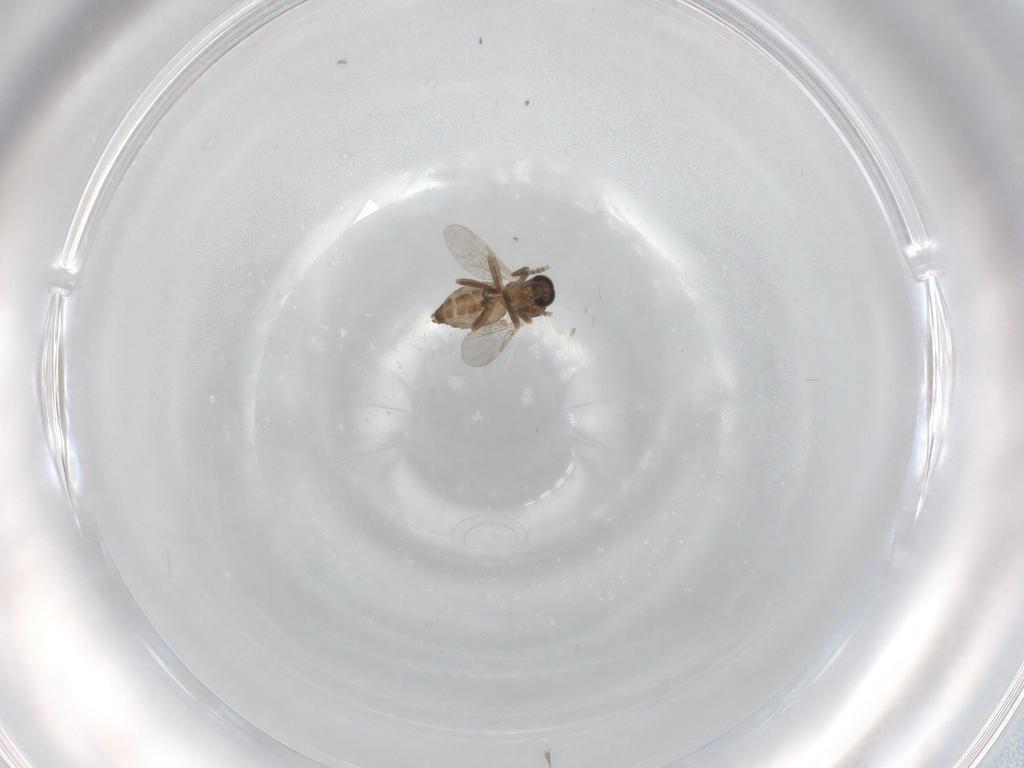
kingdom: Animalia
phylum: Arthropoda
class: Insecta
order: Diptera
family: Ceratopogonidae
